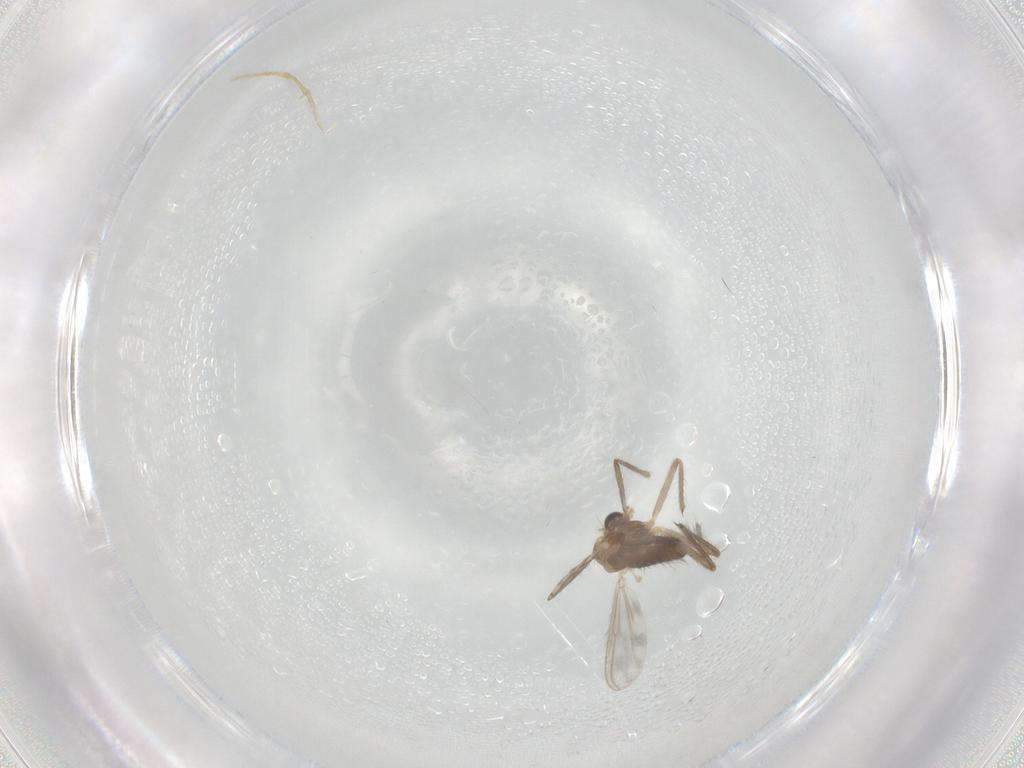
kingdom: Animalia
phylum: Arthropoda
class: Insecta
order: Diptera
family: Chironomidae
